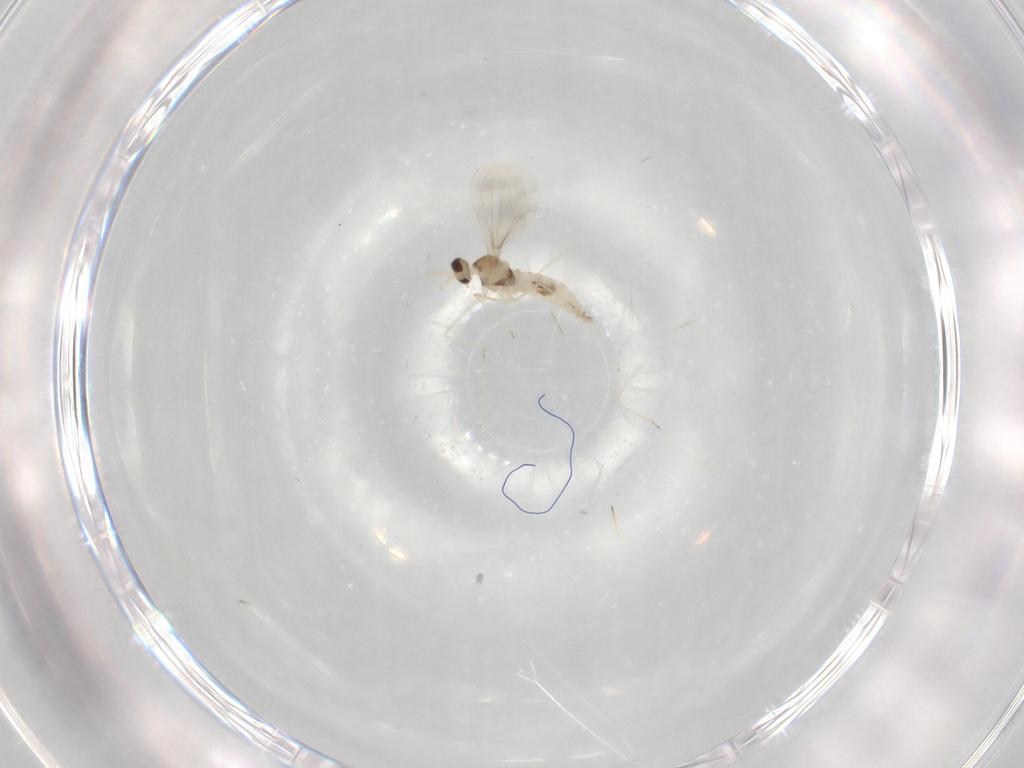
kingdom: Animalia
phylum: Arthropoda
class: Insecta
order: Diptera
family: Cecidomyiidae
